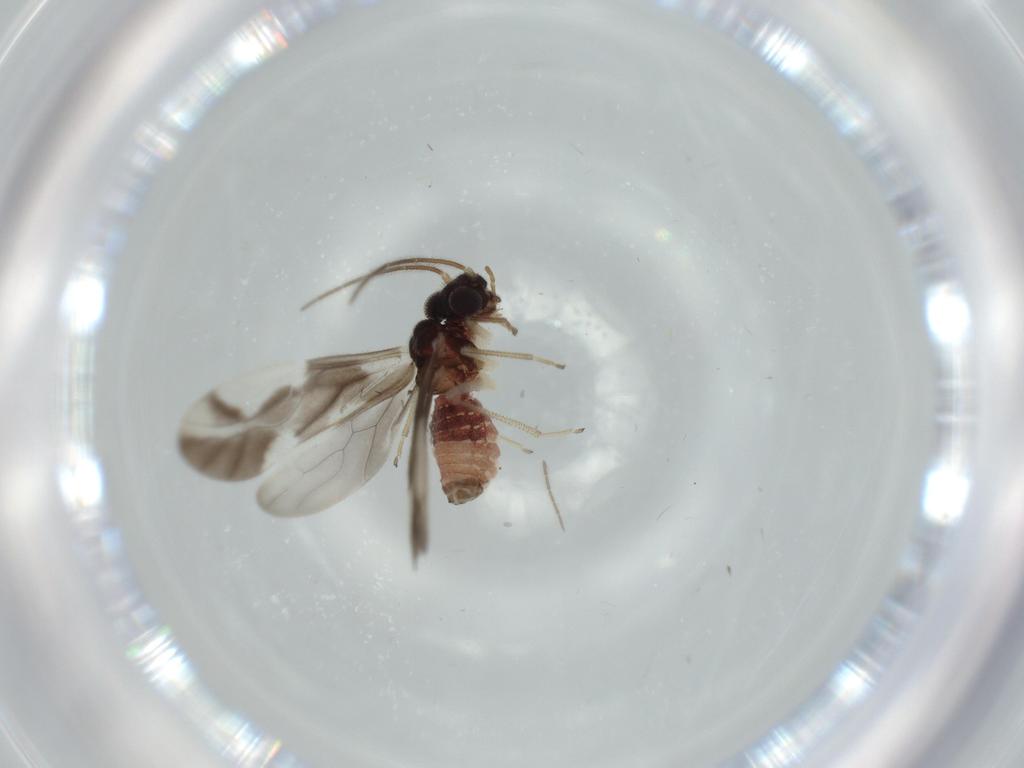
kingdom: Animalia
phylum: Arthropoda
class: Insecta
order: Psocodea
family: Caeciliusidae
